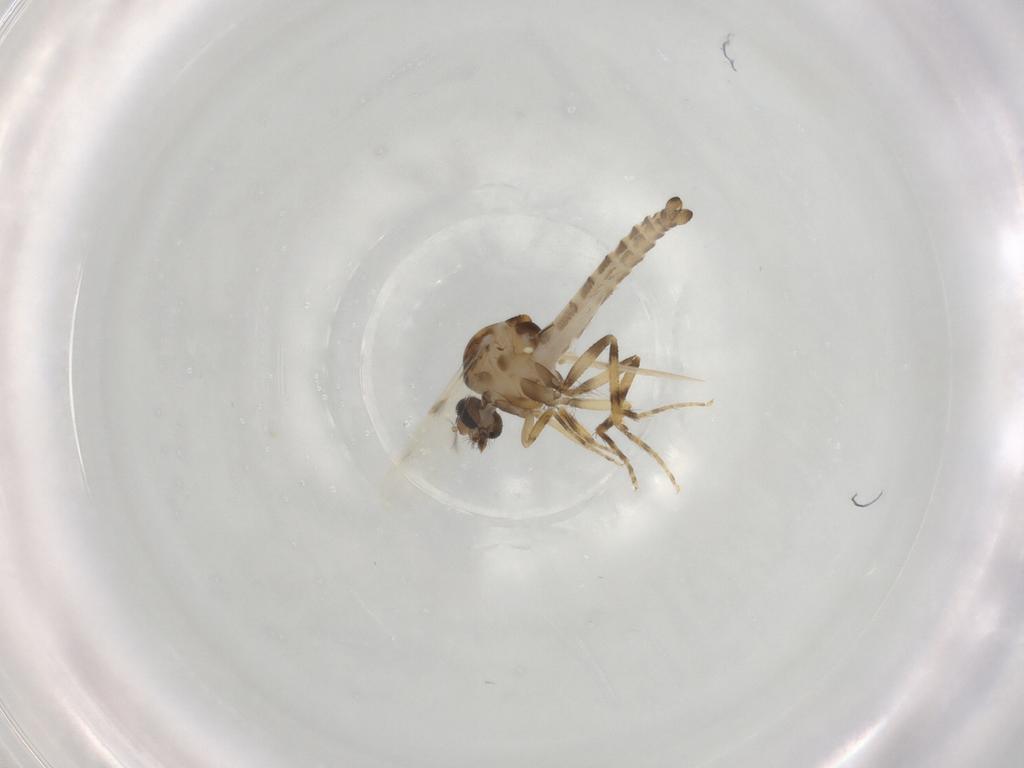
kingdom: Animalia
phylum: Arthropoda
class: Insecta
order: Diptera
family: Ceratopogonidae
